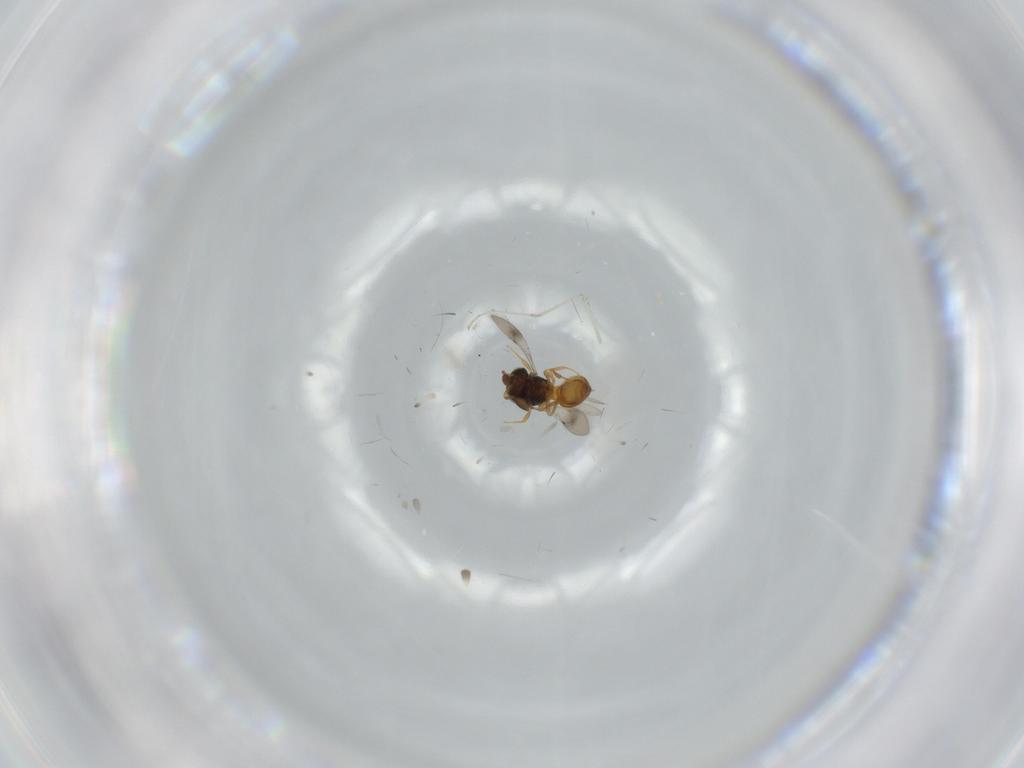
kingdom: Animalia
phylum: Arthropoda
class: Insecta
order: Hymenoptera
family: Scelionidae
